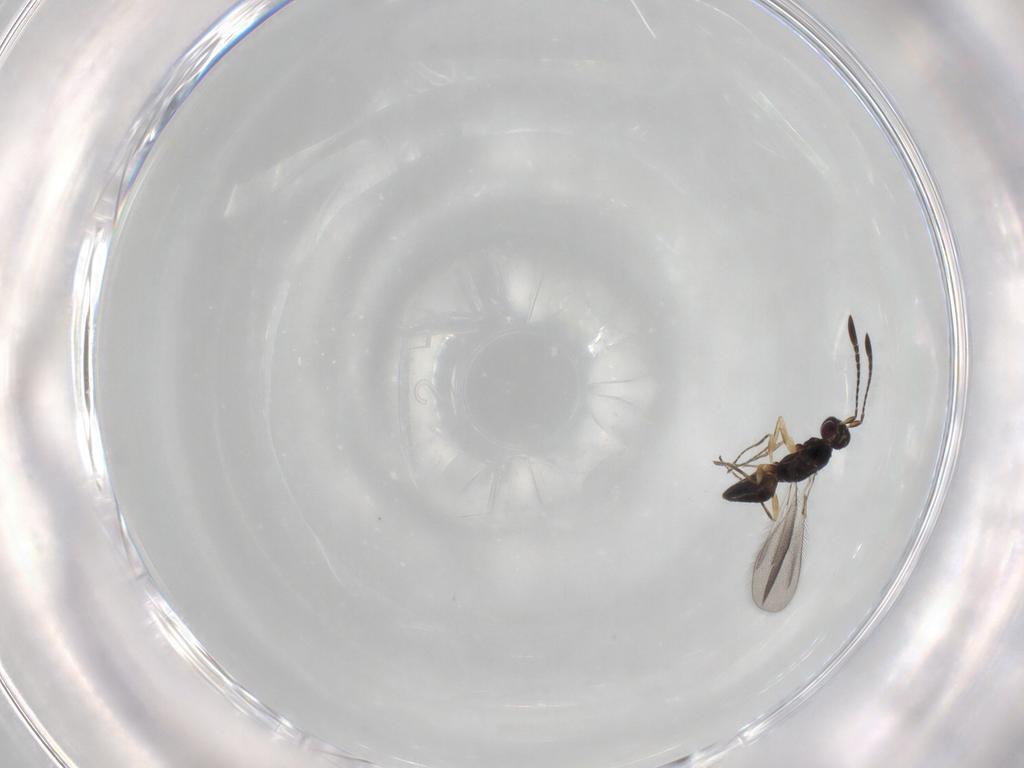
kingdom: Animalia
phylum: Arthropoda
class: Insecta
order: Hymenoptera
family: Mymaridae
